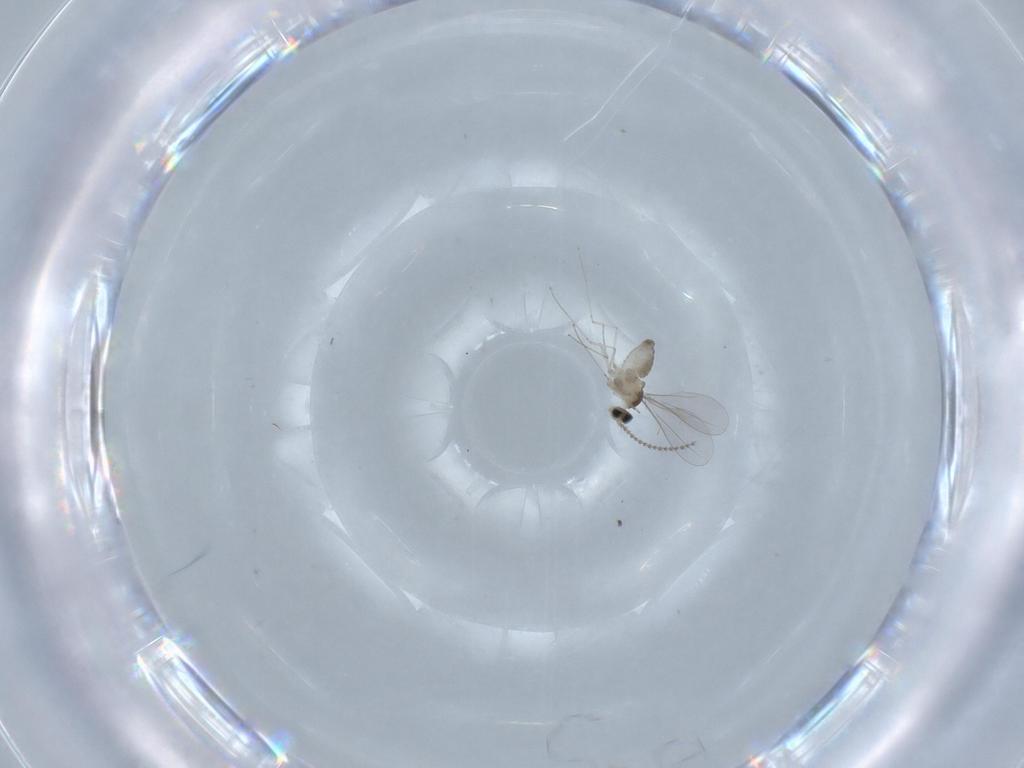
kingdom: Animalia
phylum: Arthropoda
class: Insecta
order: Diptera
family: Cecidomyiidae
